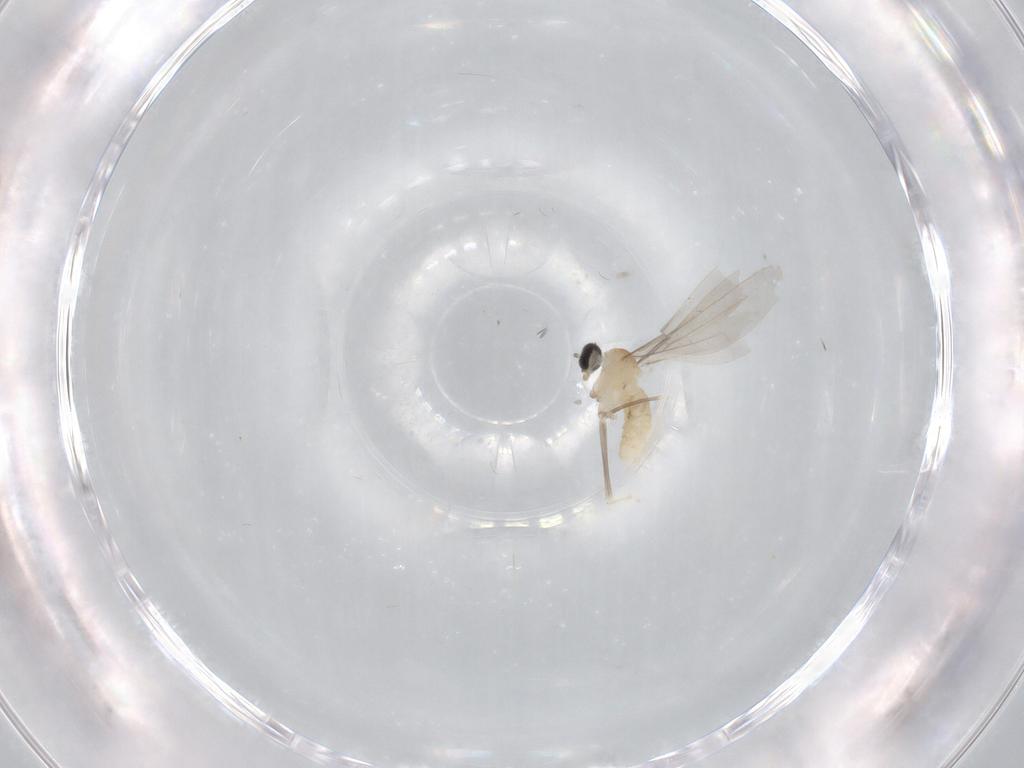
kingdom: Animalia
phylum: Arthropoda
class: Insecta
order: Diptera
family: Cecidomyiidae
